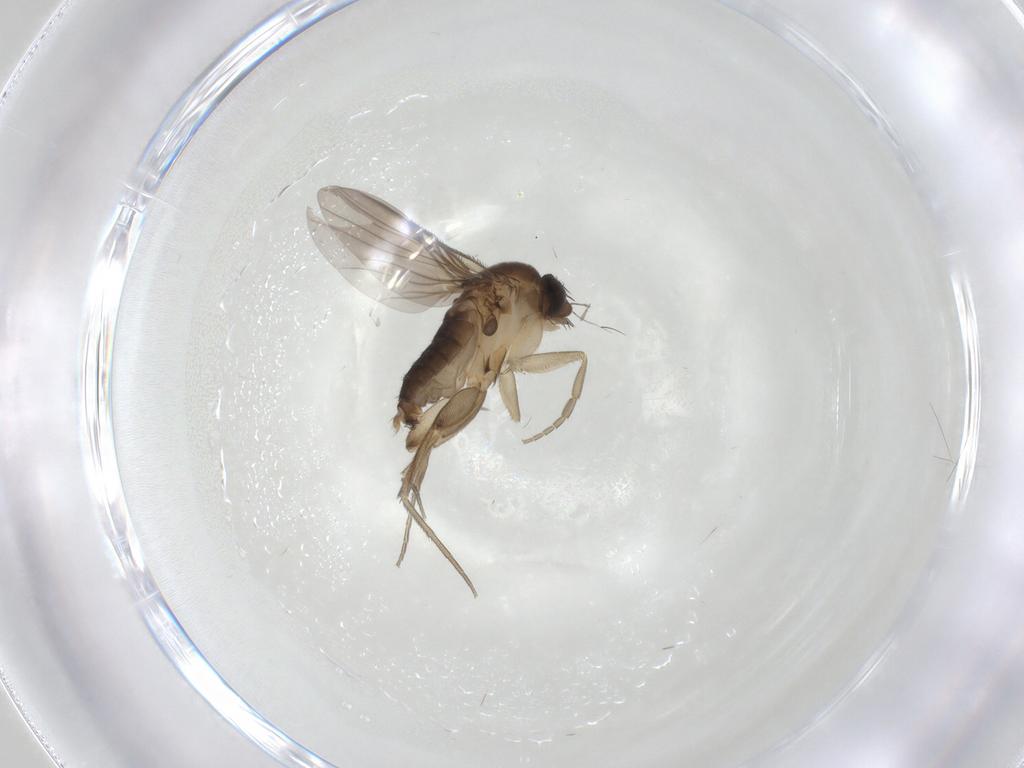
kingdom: Animalia
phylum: Arthropoda
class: Insecta
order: Diptera
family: Phoridae
